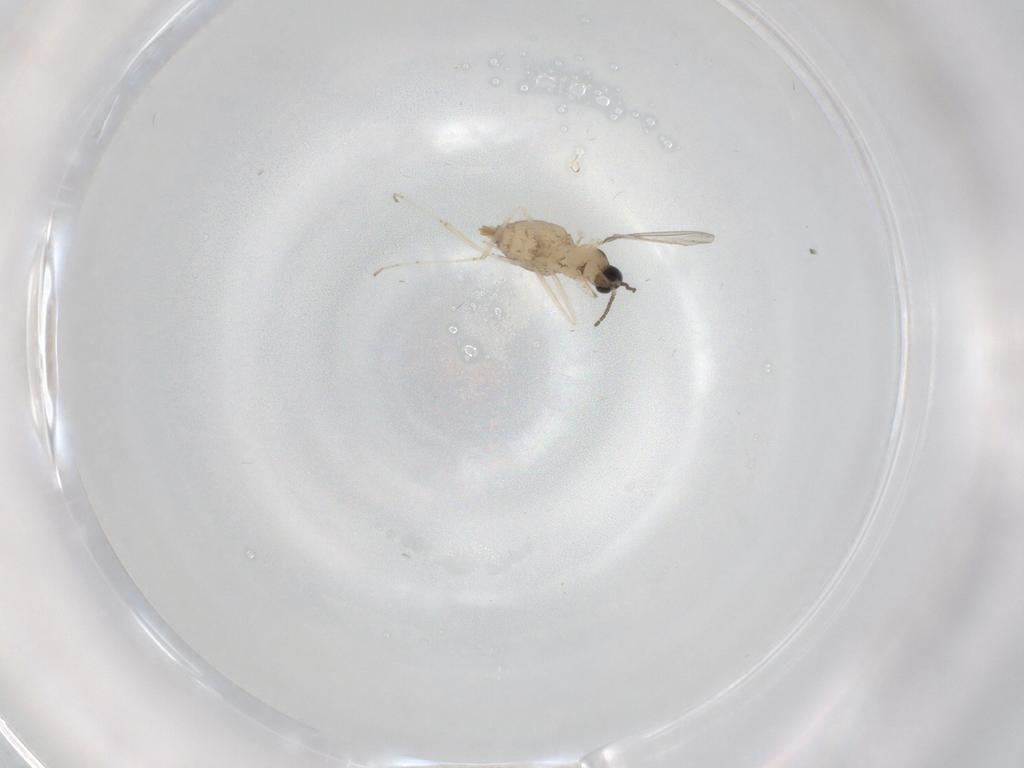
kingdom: Animalia
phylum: Arthropoda
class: Insecta
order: Diptera
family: Cecidomyiidae
